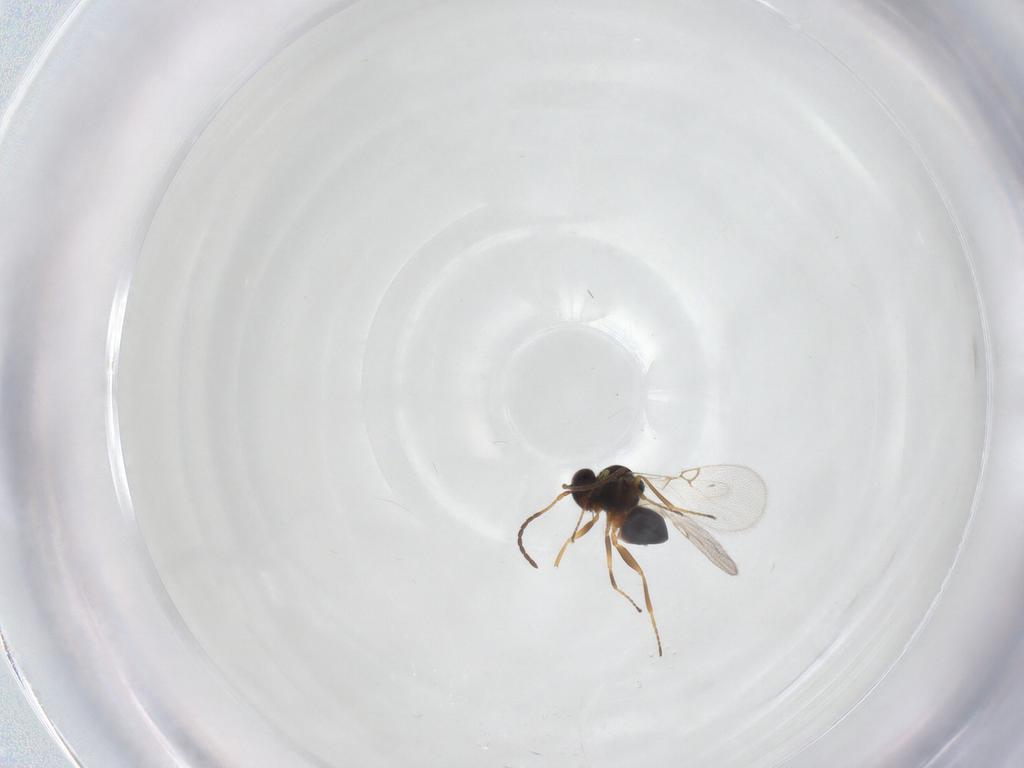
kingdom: Animalia
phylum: Arthropoda
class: Insecta
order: Hymenoptera
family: Figitidae
